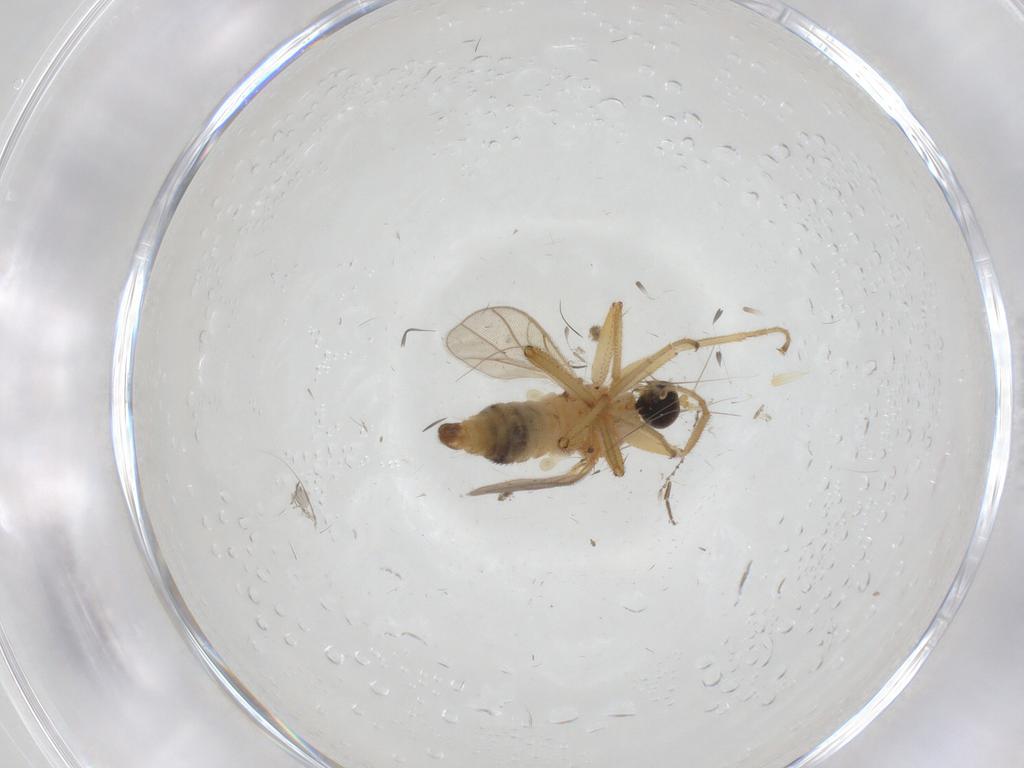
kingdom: Animalia
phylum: Arthropoda
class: Insecta
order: Diptera
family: Hybotidae
